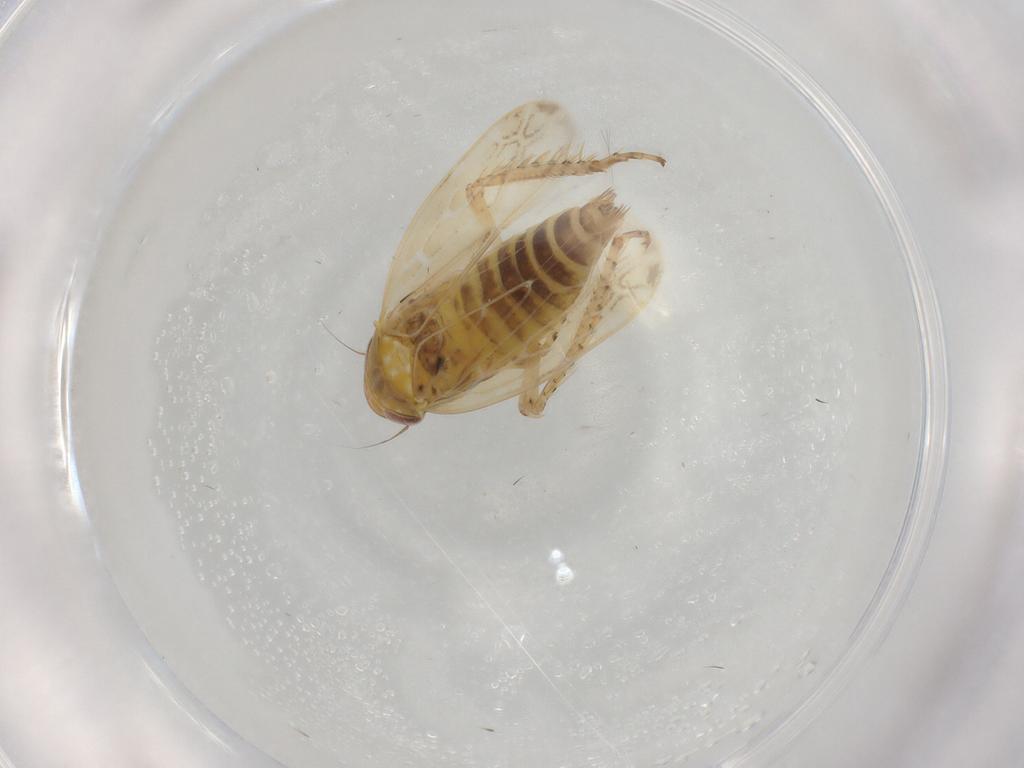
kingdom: Animalia
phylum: Arthropoda
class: Insecta
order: Hemiptera
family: Cicadellidae
